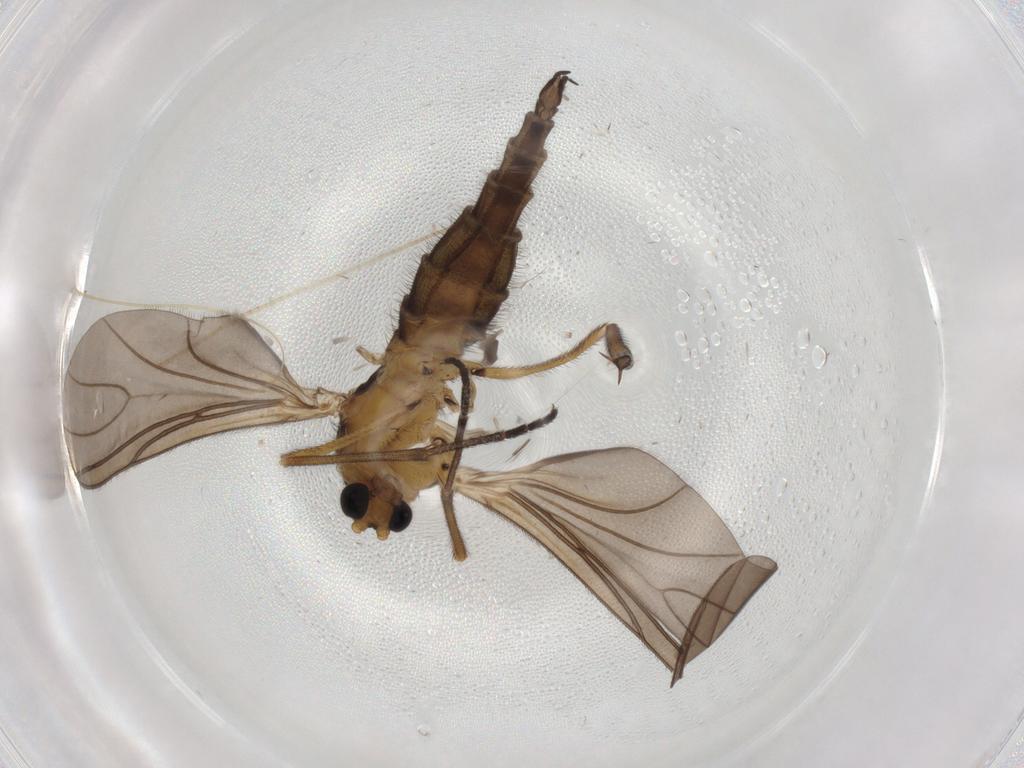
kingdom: Animalia
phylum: Arthropoda
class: Insecta
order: Diptera
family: Sciaridae
